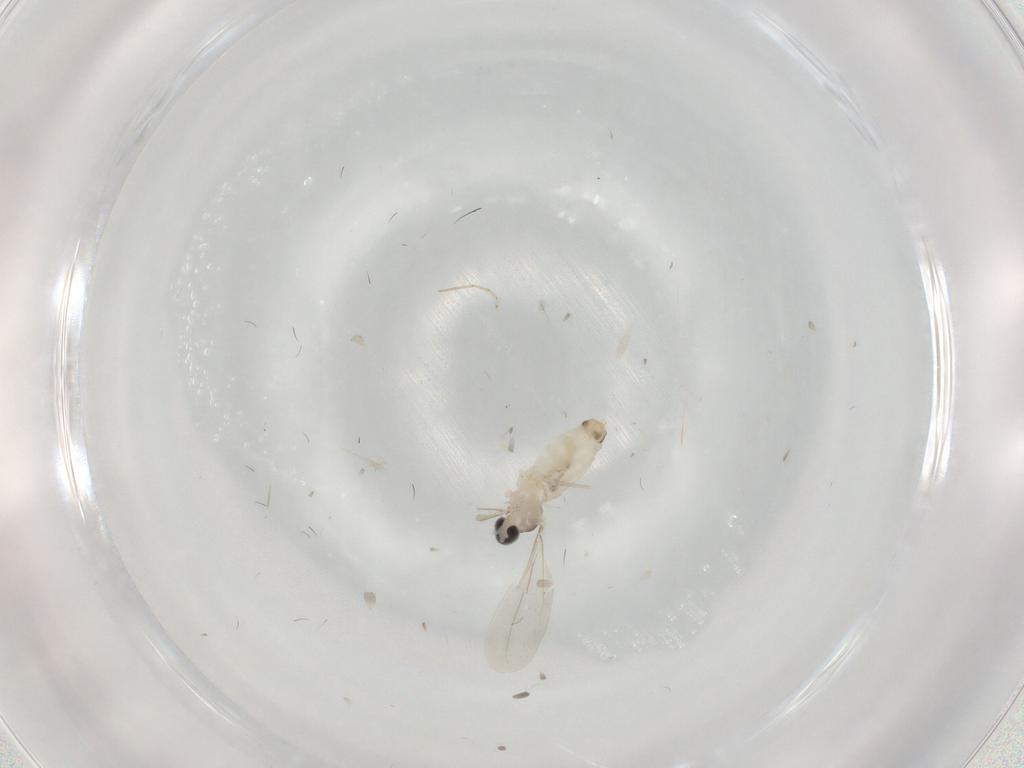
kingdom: Animalia
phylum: Arthropoda
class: Insecta
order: Diptera
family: Cecidomyiidae
